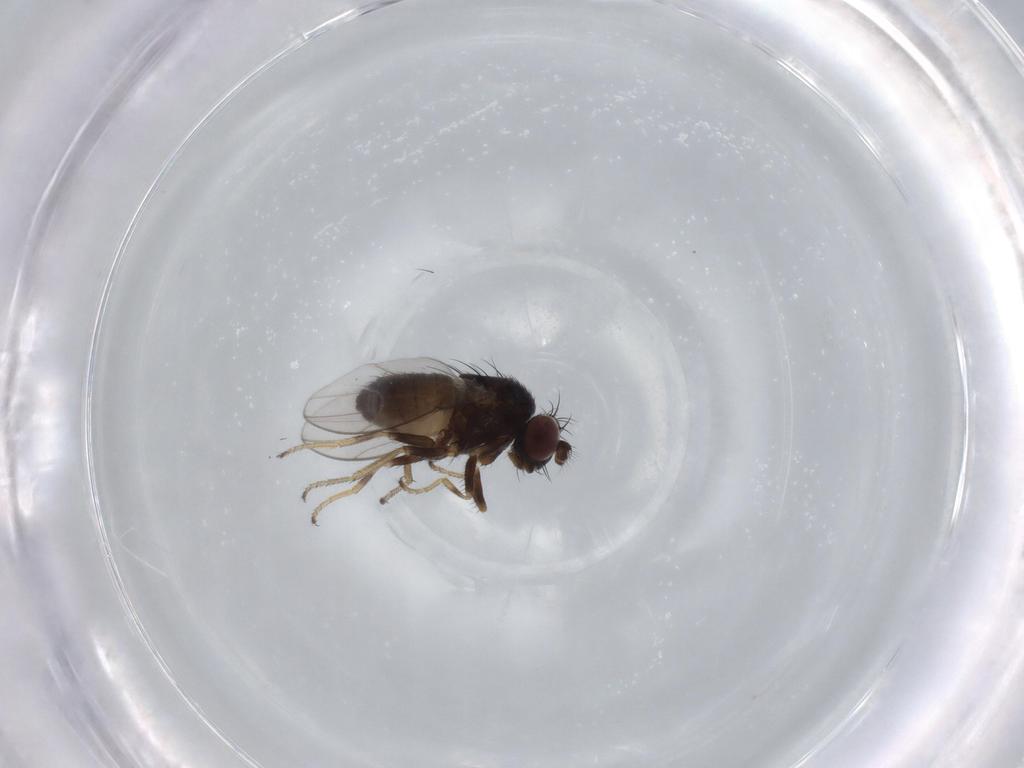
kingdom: Animalia
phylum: Arthropoda
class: Insecta
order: Diptera
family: Ephydridae
